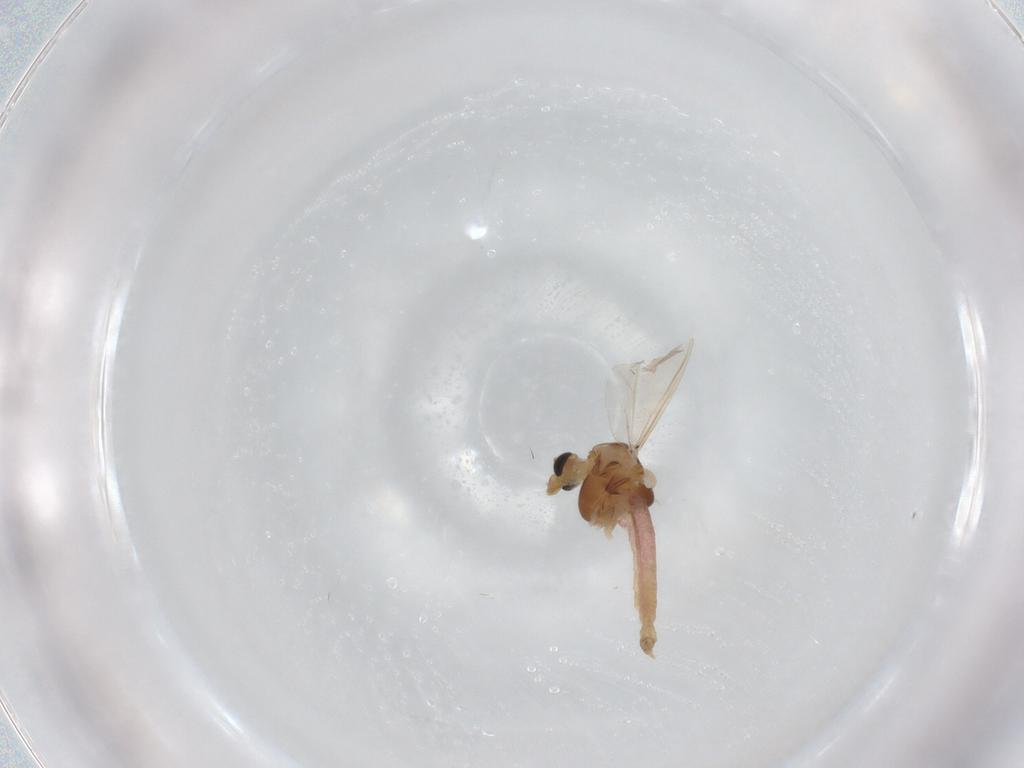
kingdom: Animalia
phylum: Arthropoda
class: Insecta
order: Diptera
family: Chironomidae
